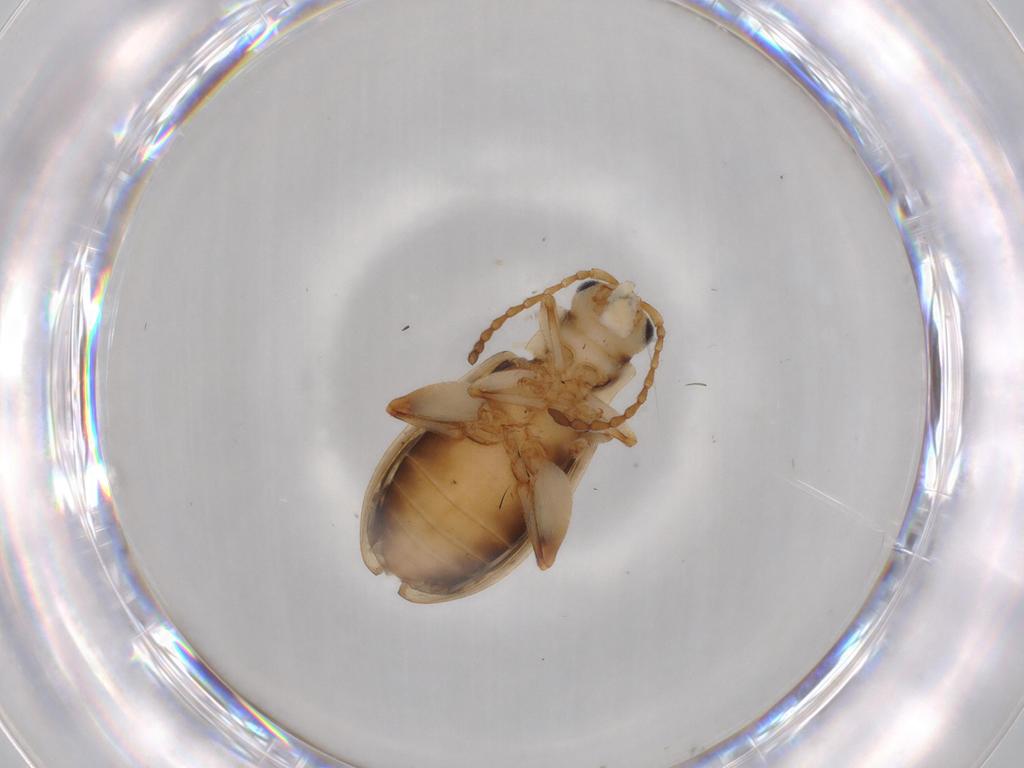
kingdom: Animalia
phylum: Arthropoda
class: Insecta
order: Coleoptera
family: Chrysomelidae
